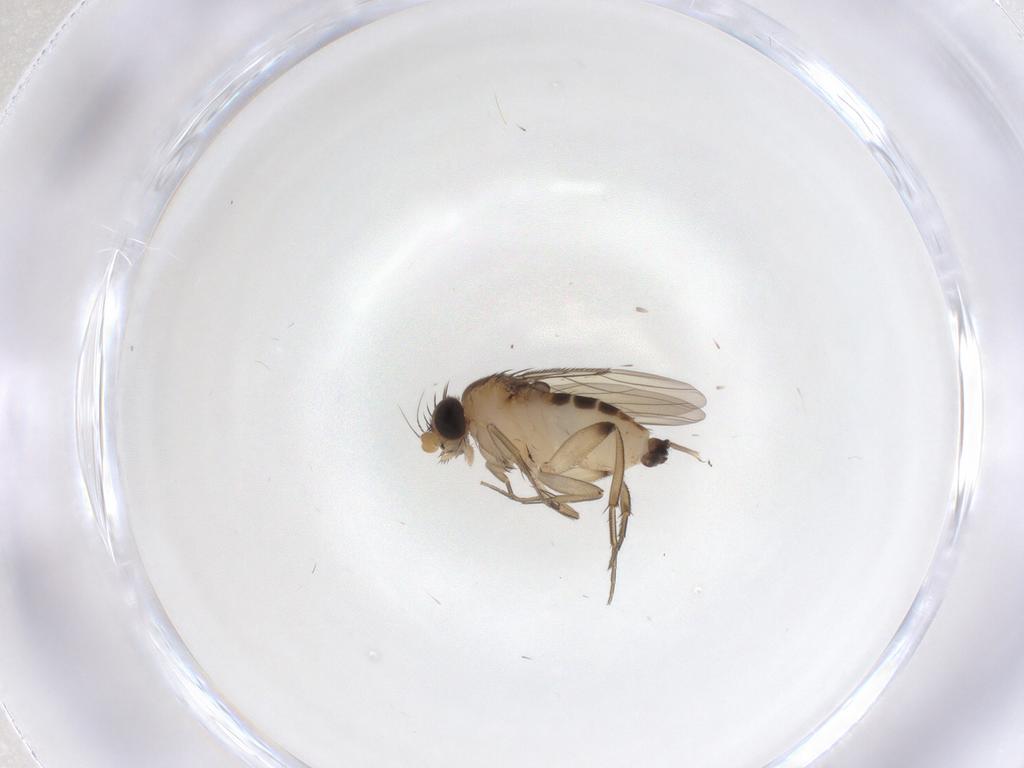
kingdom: Animalia
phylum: Arthropoda
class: Insecta
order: Diptera
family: Phoridae
